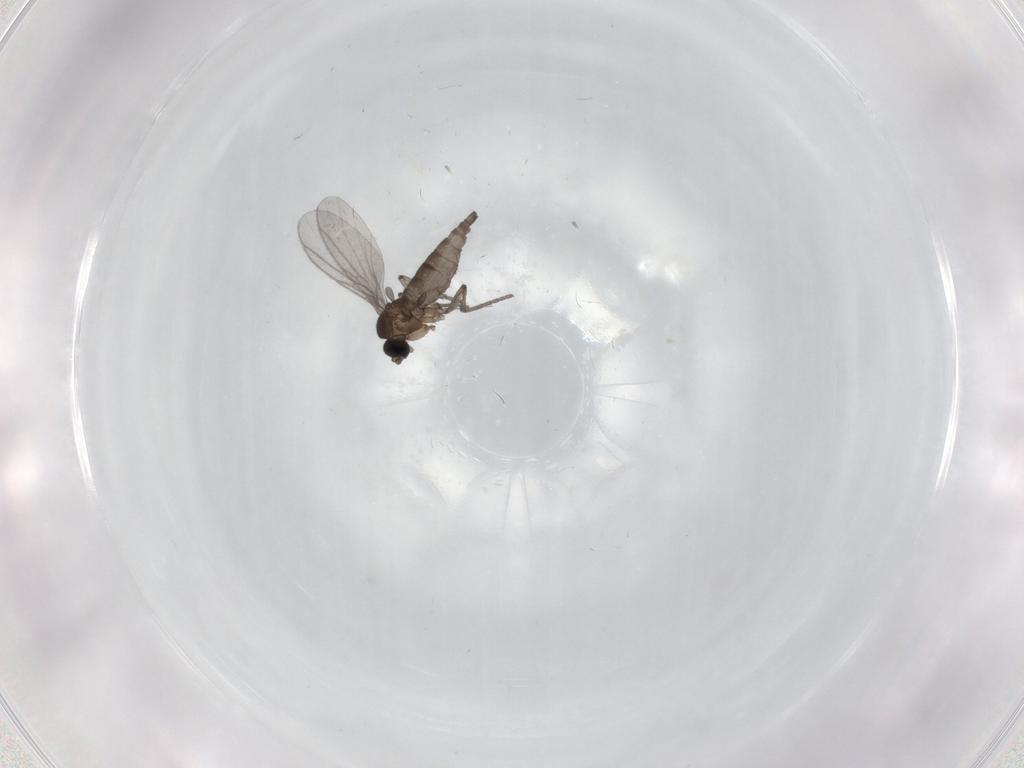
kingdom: Animalia
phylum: Arthropoda
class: Insecta
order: Diptera
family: Sciaridae
